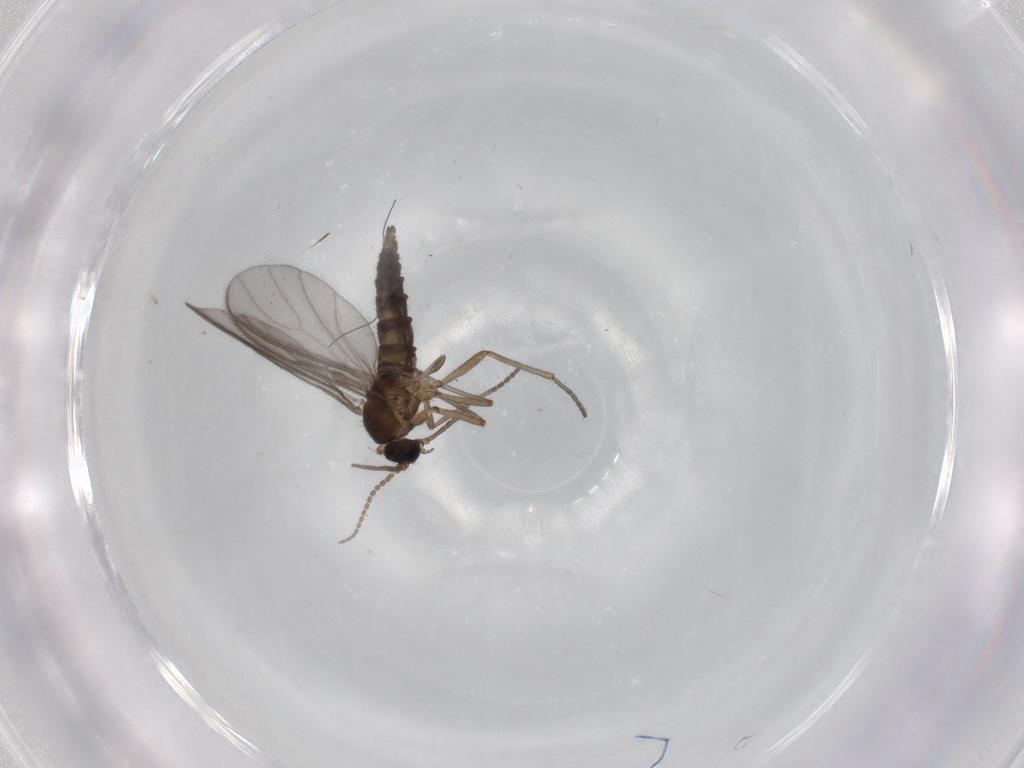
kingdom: Animalia
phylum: Arthropoda
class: Insecta
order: Diptera
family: Sciaridae
